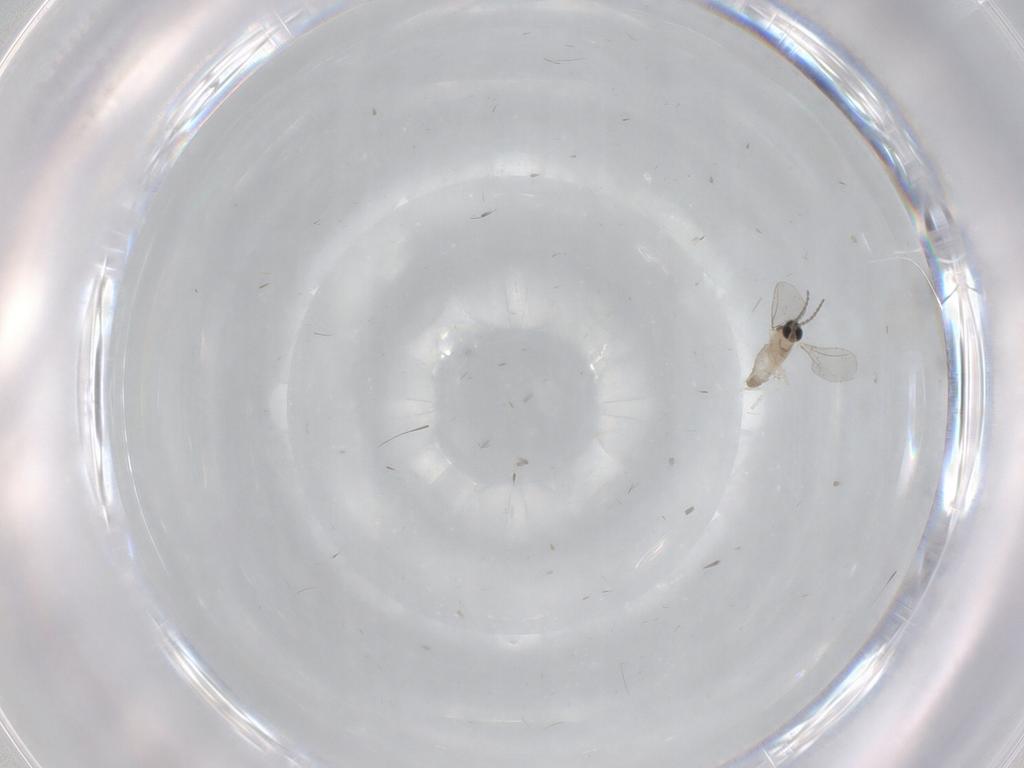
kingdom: Animalia
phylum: Arthropoda
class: Insecta
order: Diptera
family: Chironomidae
